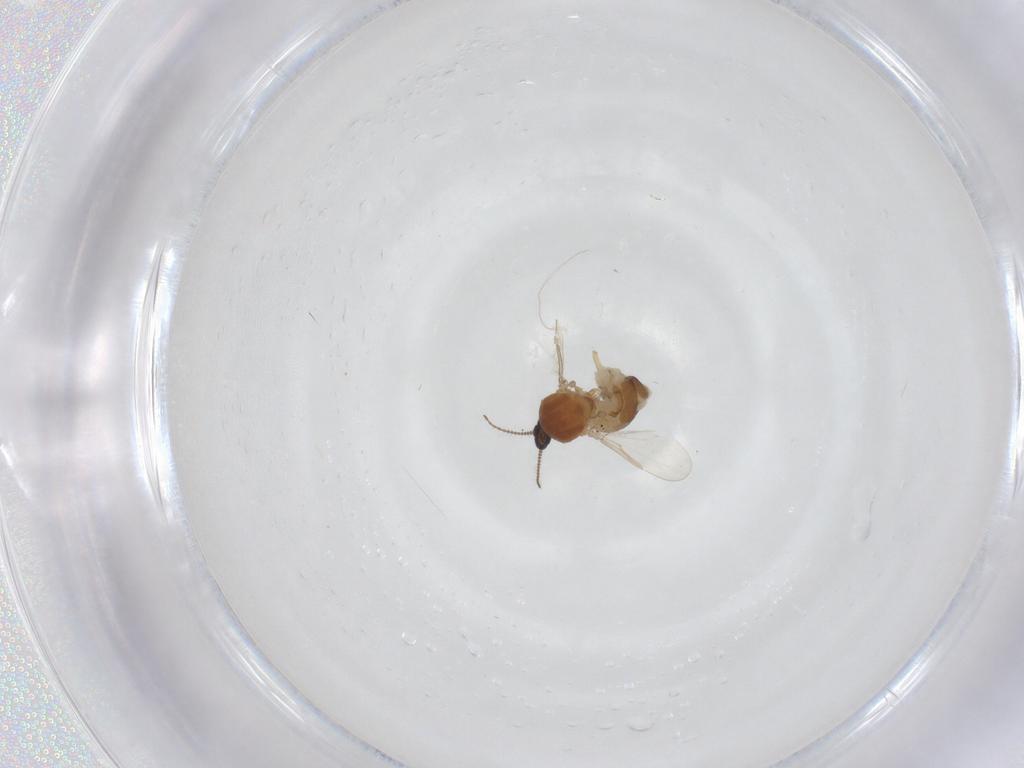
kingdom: Animalia
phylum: Arthropoda
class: Insecta
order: Diptera
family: Ceratopogonidae
